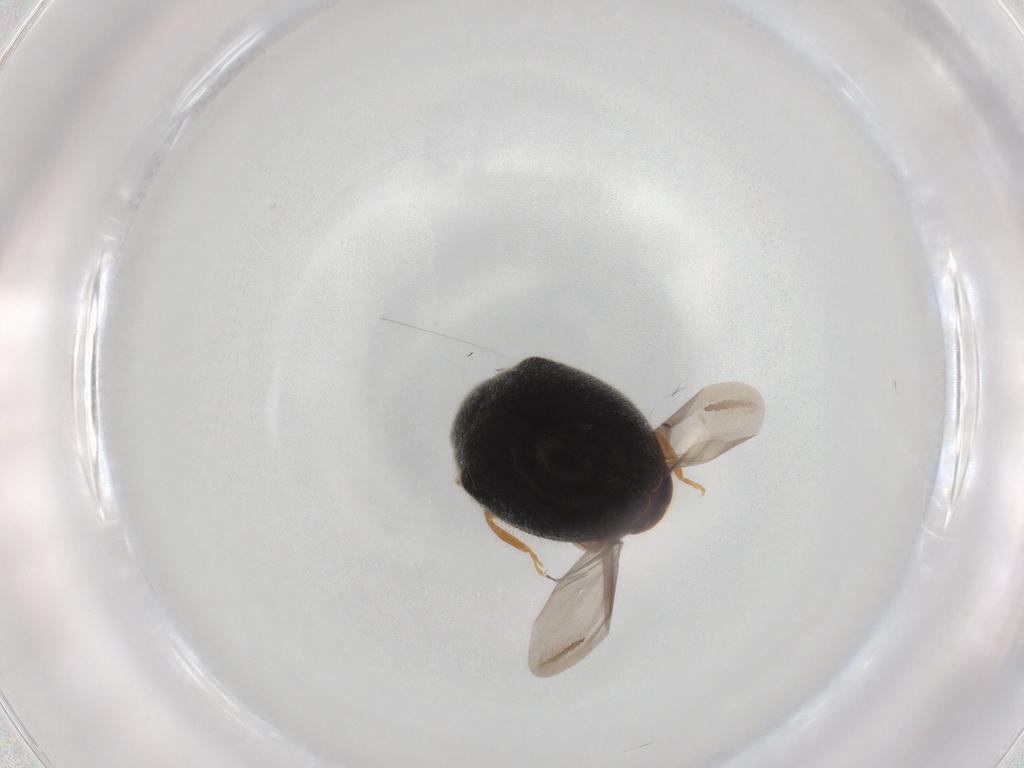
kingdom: Animalia
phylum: Arthropoda
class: Insecta
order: Coleoptera
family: Coccinellidae
